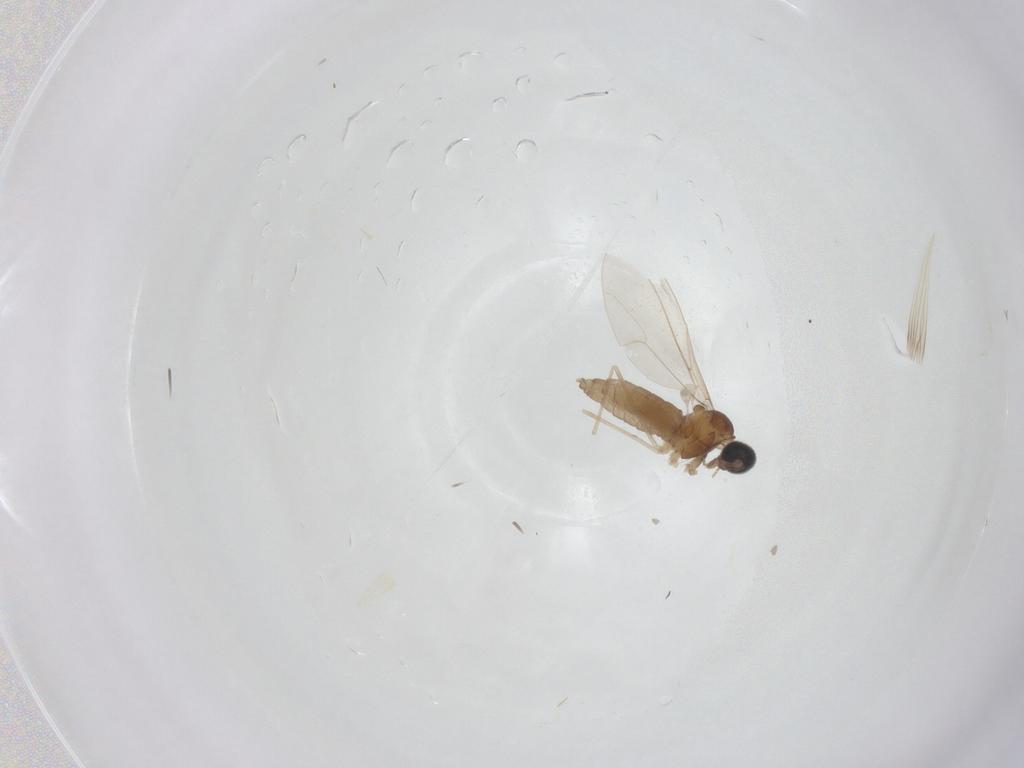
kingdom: Animalia
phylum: Arthropoda
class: Insecta
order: Diptera
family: Cecidomyiidae
